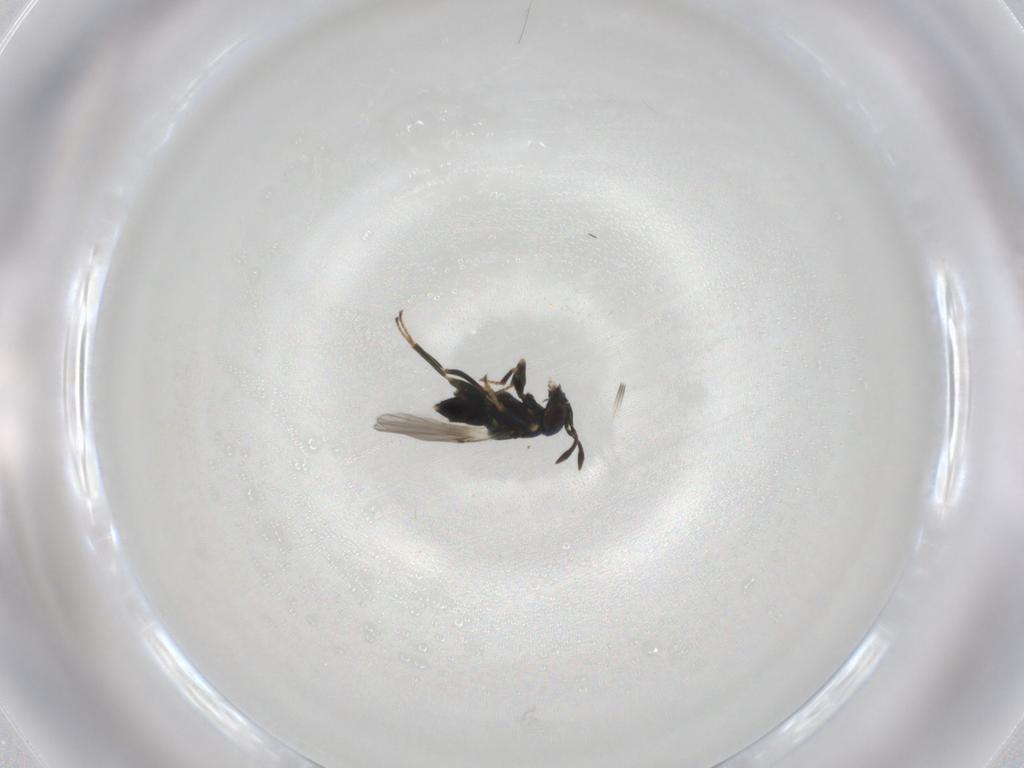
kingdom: Animalia
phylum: Arthropoda
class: Insecta
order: Hymenoptera
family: Encyrtidae
